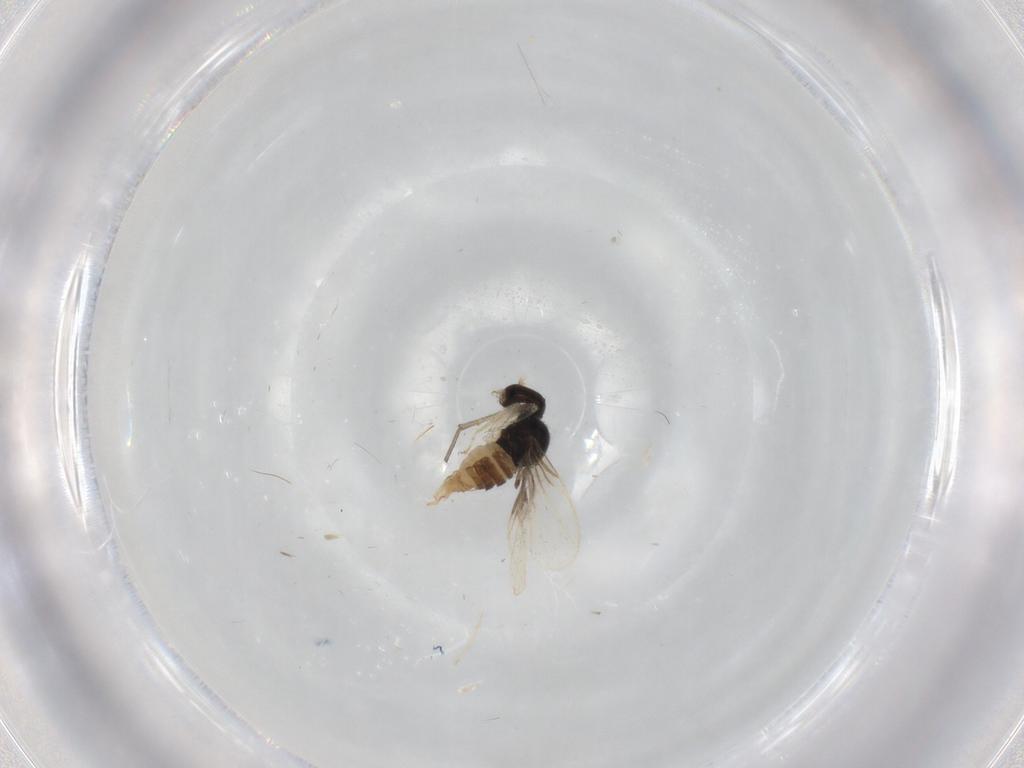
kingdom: Animalia
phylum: Arthropoda
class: Insecta
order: Diptera
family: Hybotidae
